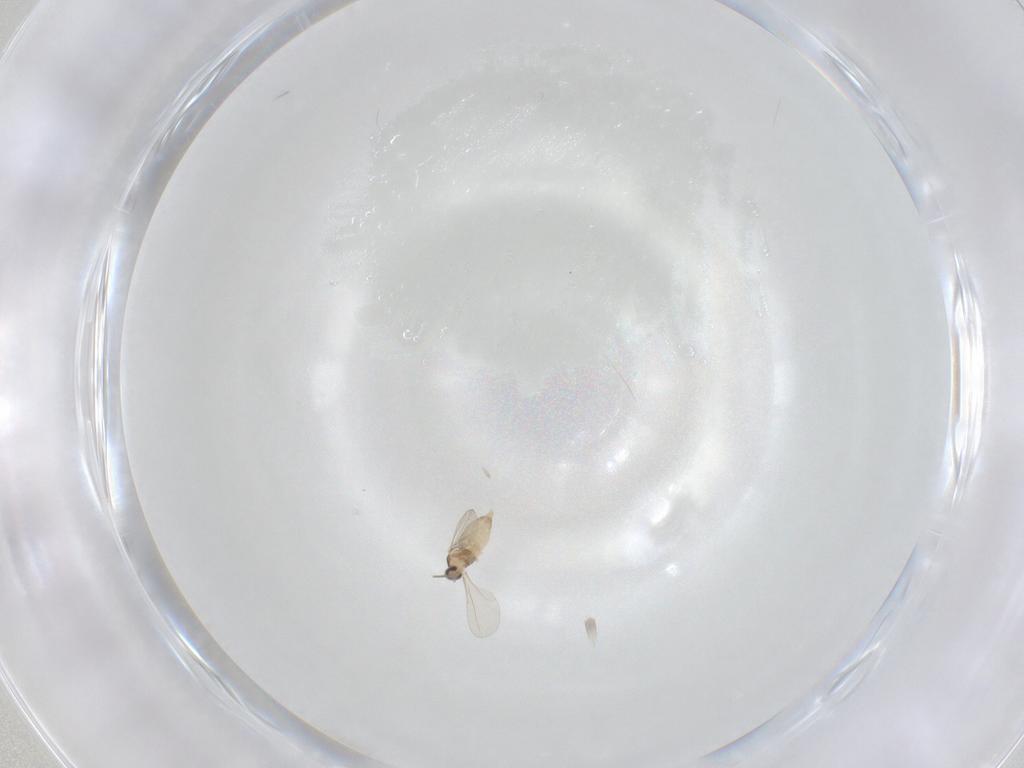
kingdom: Animalia
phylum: Arthropoda
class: Insecta
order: Diptera
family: Cecidomyiidae
